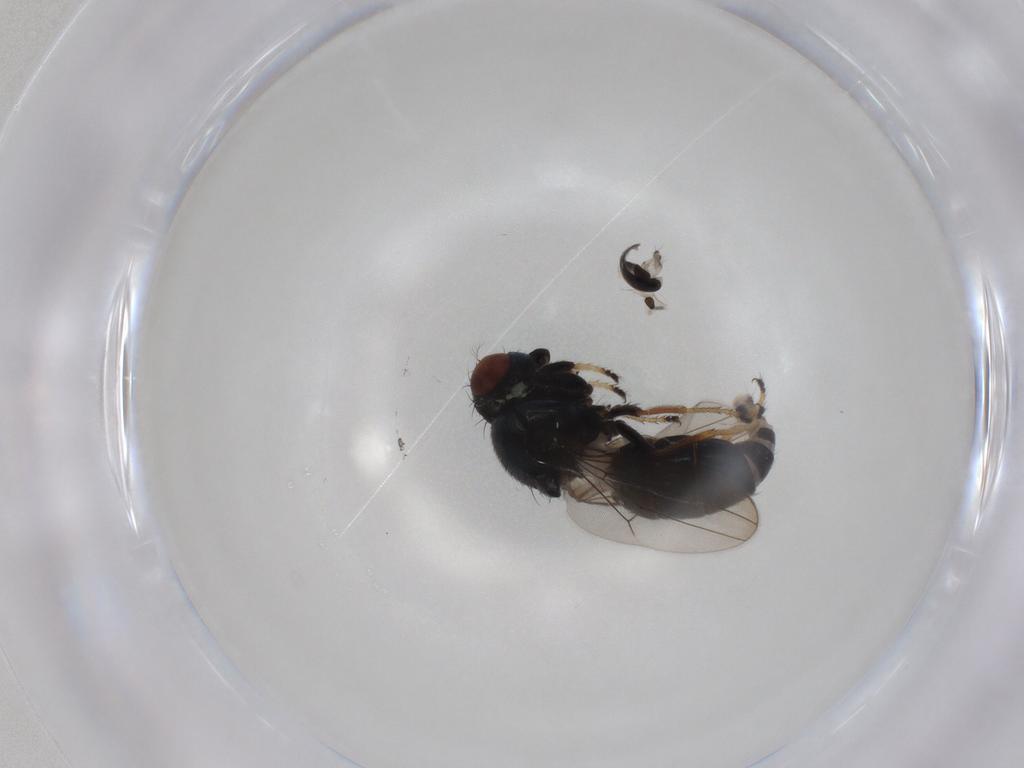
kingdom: Animalia
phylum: Arthropoda
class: Insecta
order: Diptera
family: Ephydridae
